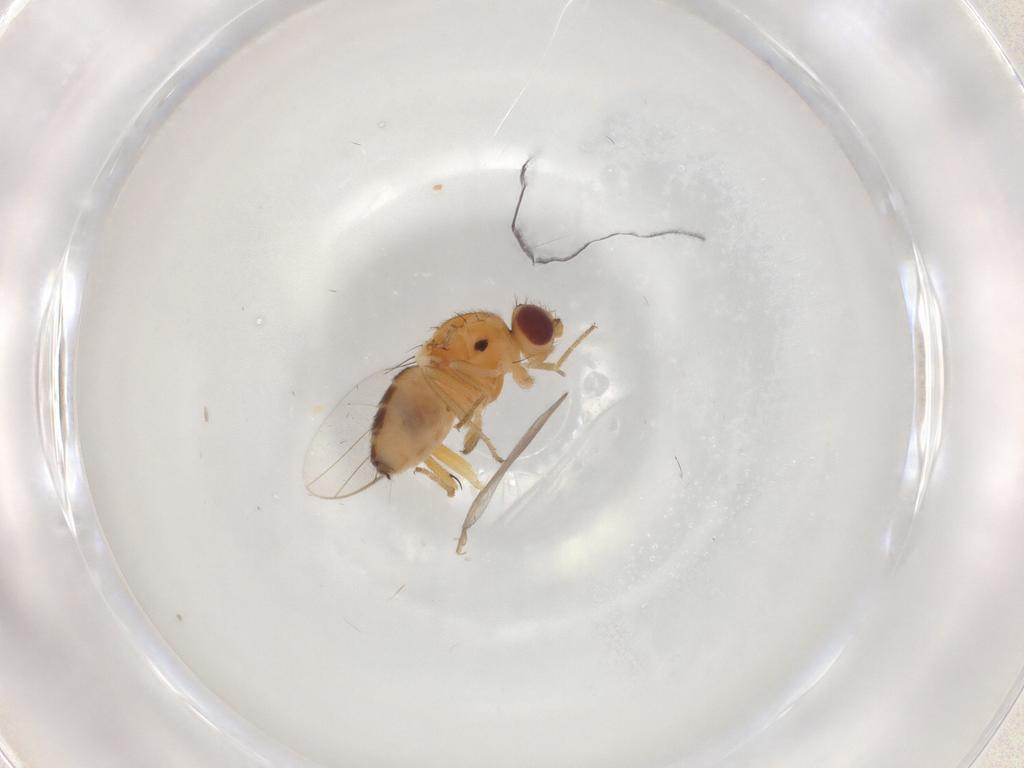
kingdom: Animalia
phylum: Arthropoda
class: Insecta
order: Diptera
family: Chloropidae
